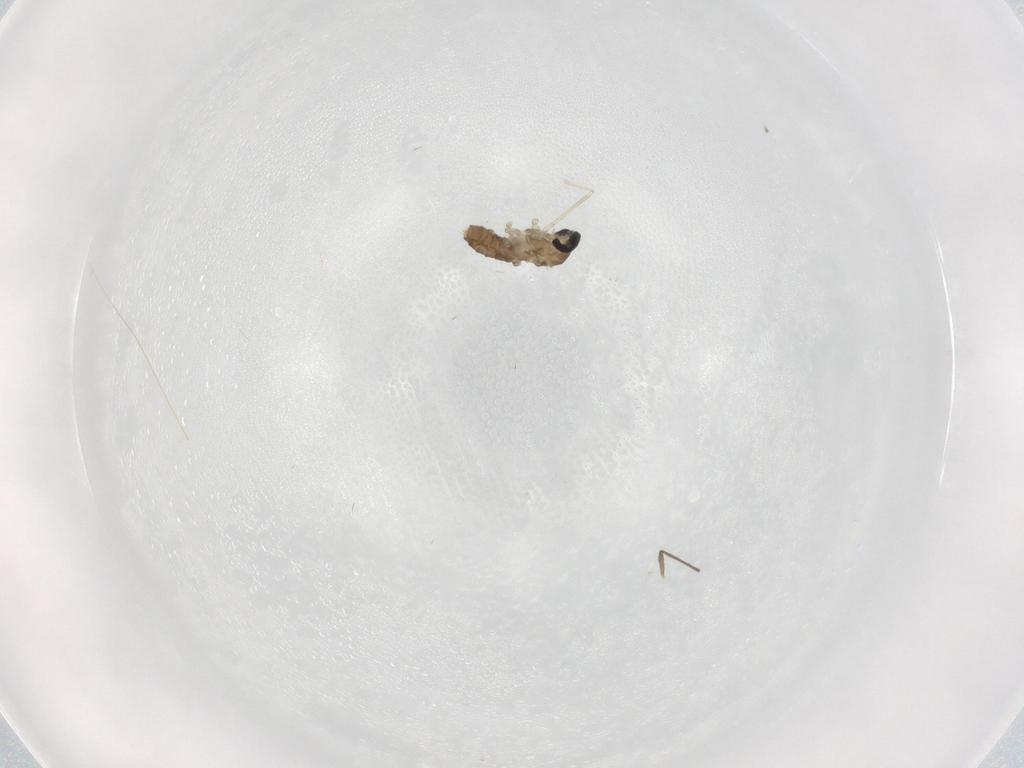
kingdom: Animalia
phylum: Arthropoda
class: Insecta
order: Diptera
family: Cecidomyiidae
